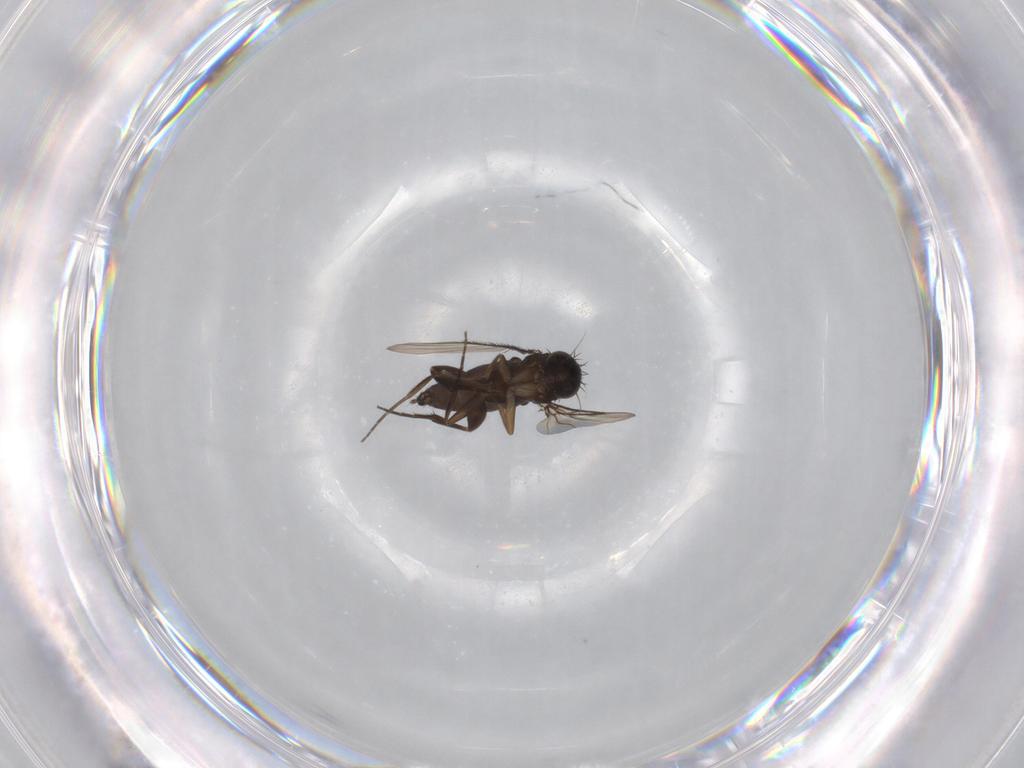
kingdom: Animalia
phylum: Arthropoda
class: Insecta
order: Diptera
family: Phoridae
